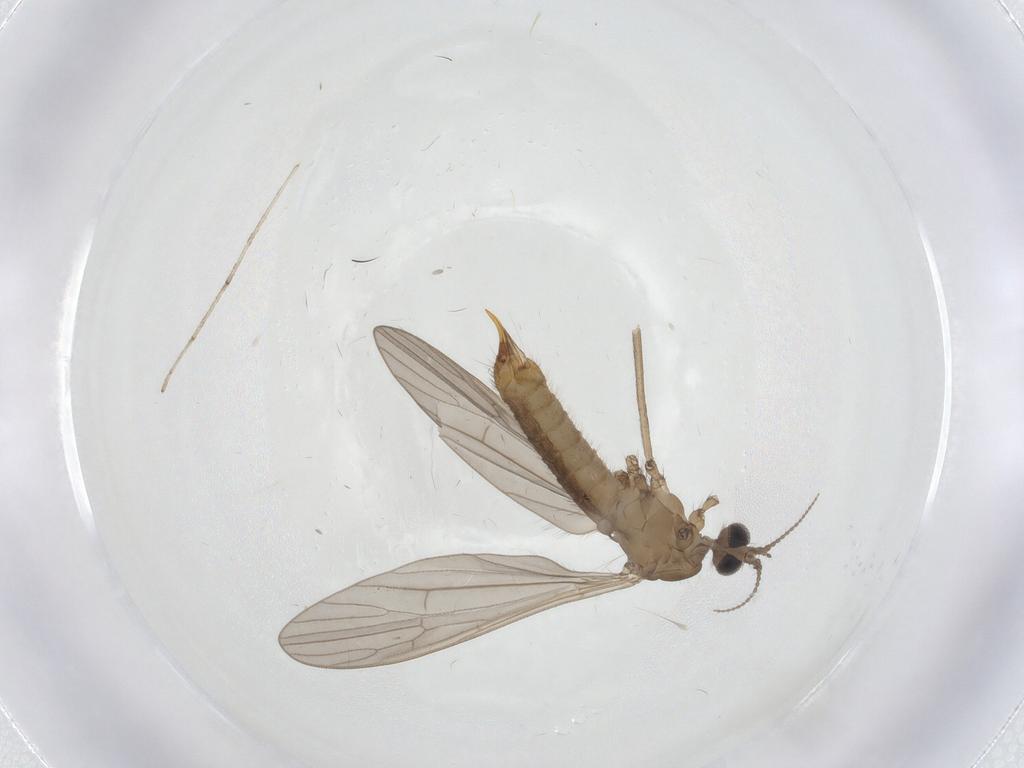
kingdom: Animalia
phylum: Arthropoda
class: Insecta
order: Diptera
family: Limoniidae
